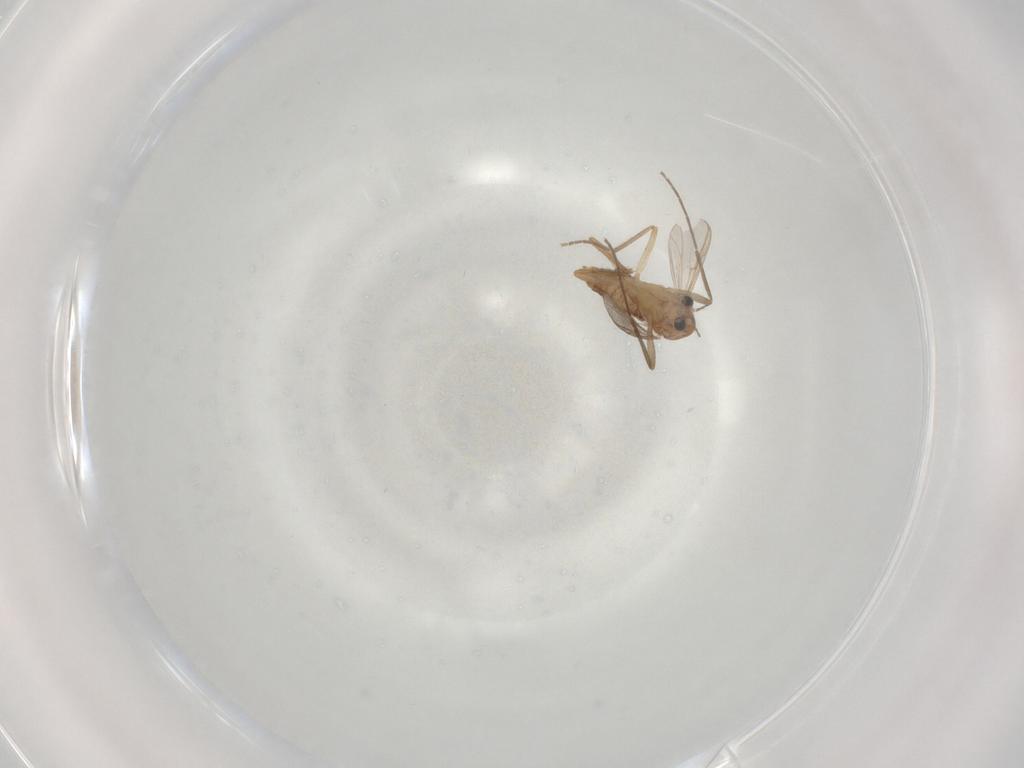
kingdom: Animalia
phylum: Arthropoda
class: Insecta
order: Diptera
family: Chironomidae
